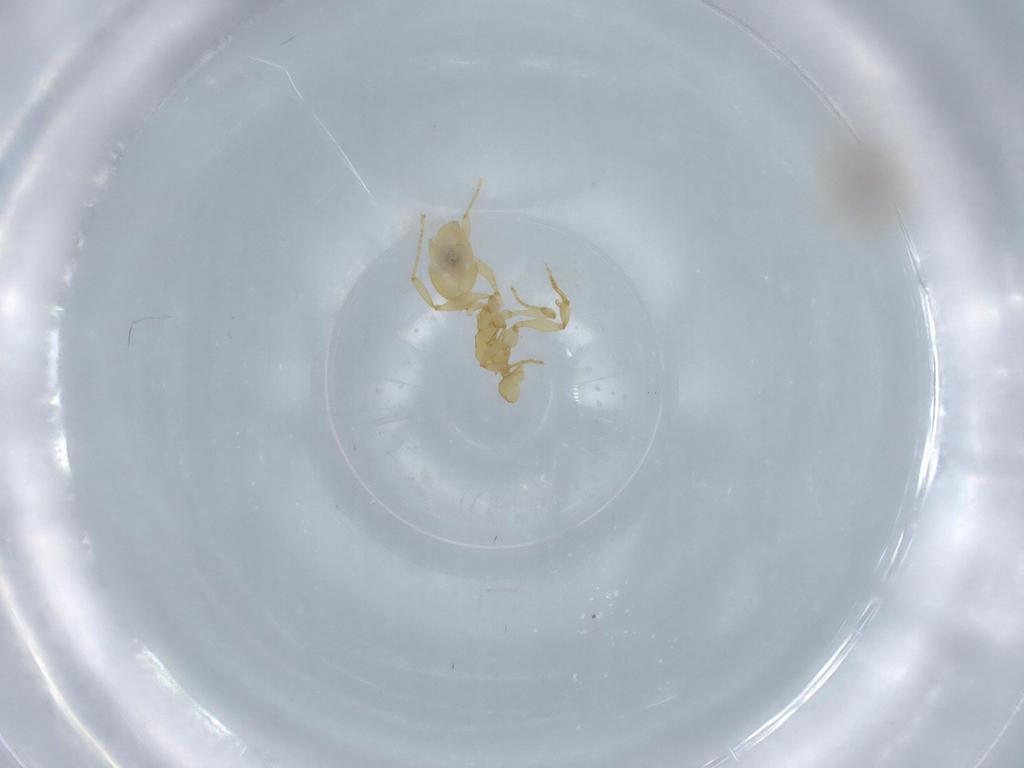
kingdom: Animalia
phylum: Arthropoda
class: Insecta
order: Hymenoptera
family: Formicidae
